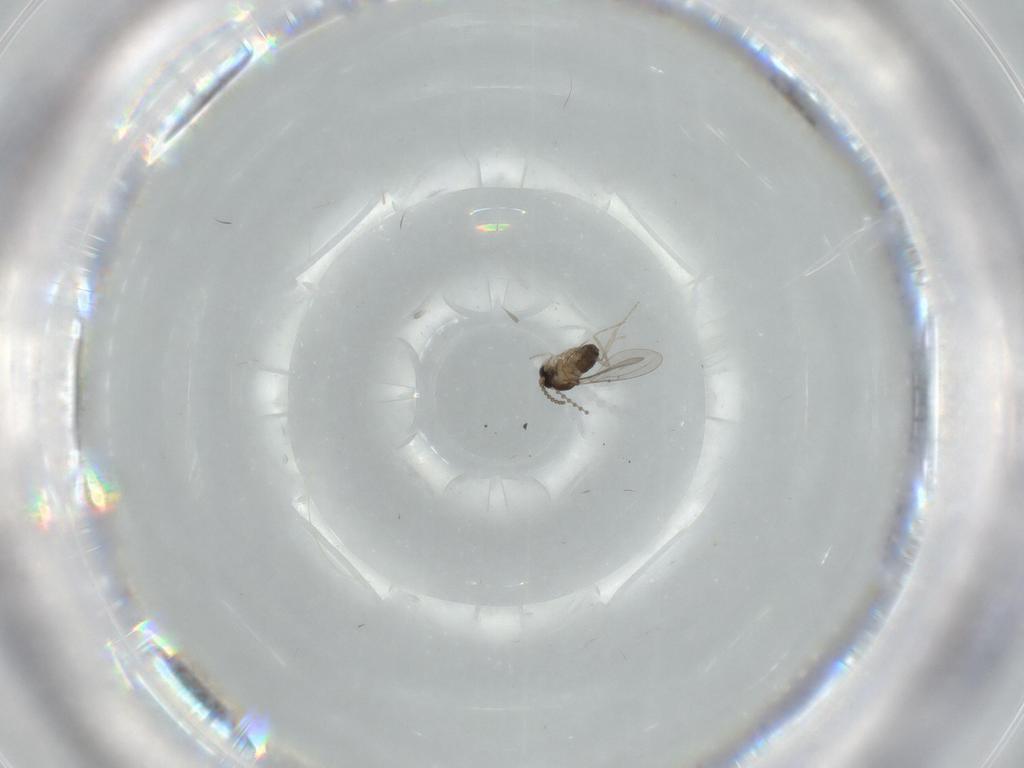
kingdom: Animalia
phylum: Arthropoda
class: Insecta
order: Diptera
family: Cecidomyiidae
